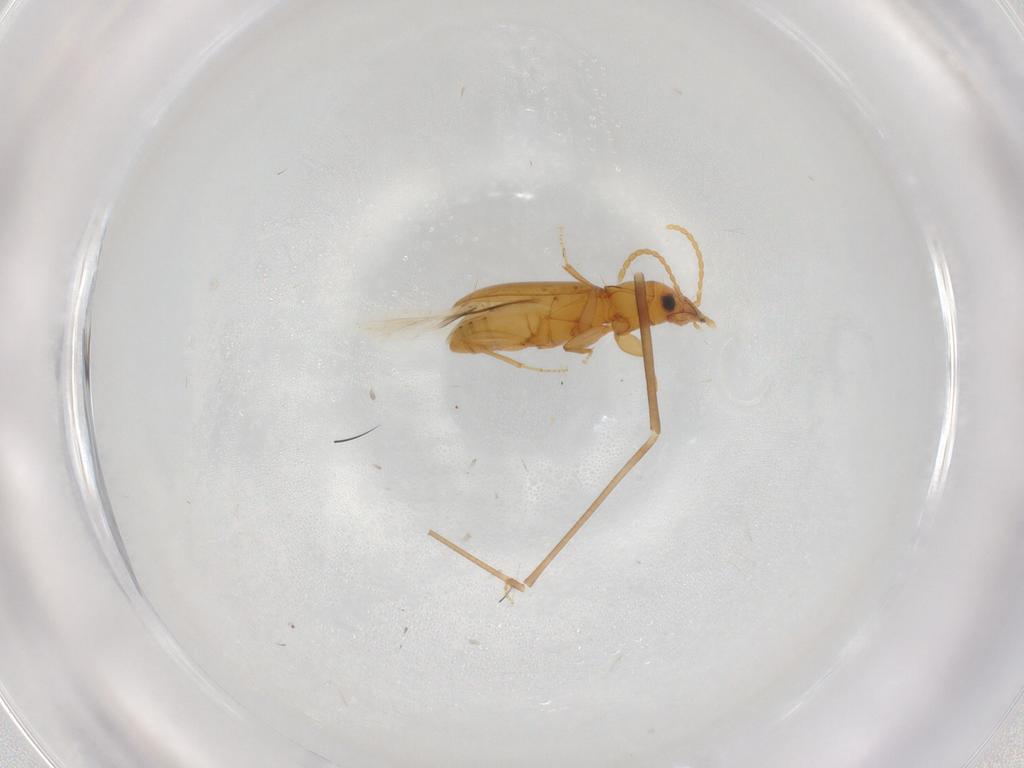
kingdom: Animalia
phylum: Arthropoda
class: Insecta
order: Coleoptera
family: Carabidae
